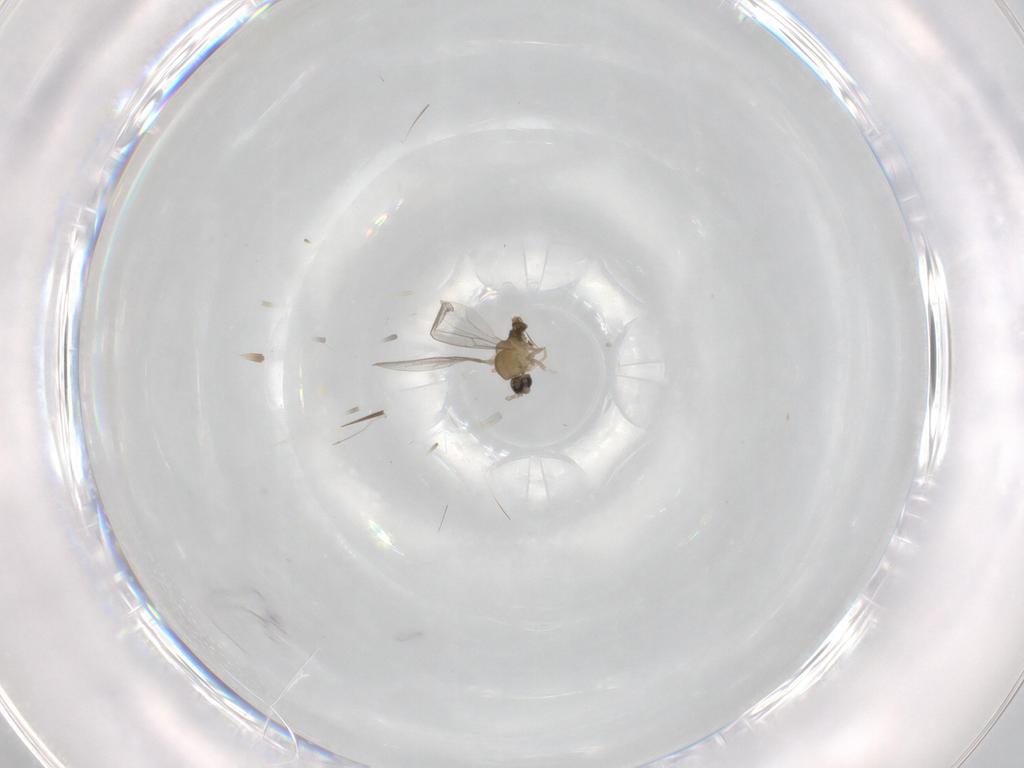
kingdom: Animalia
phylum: Arthropoda
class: Insecta
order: Diptera
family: Cecidomyiidae
